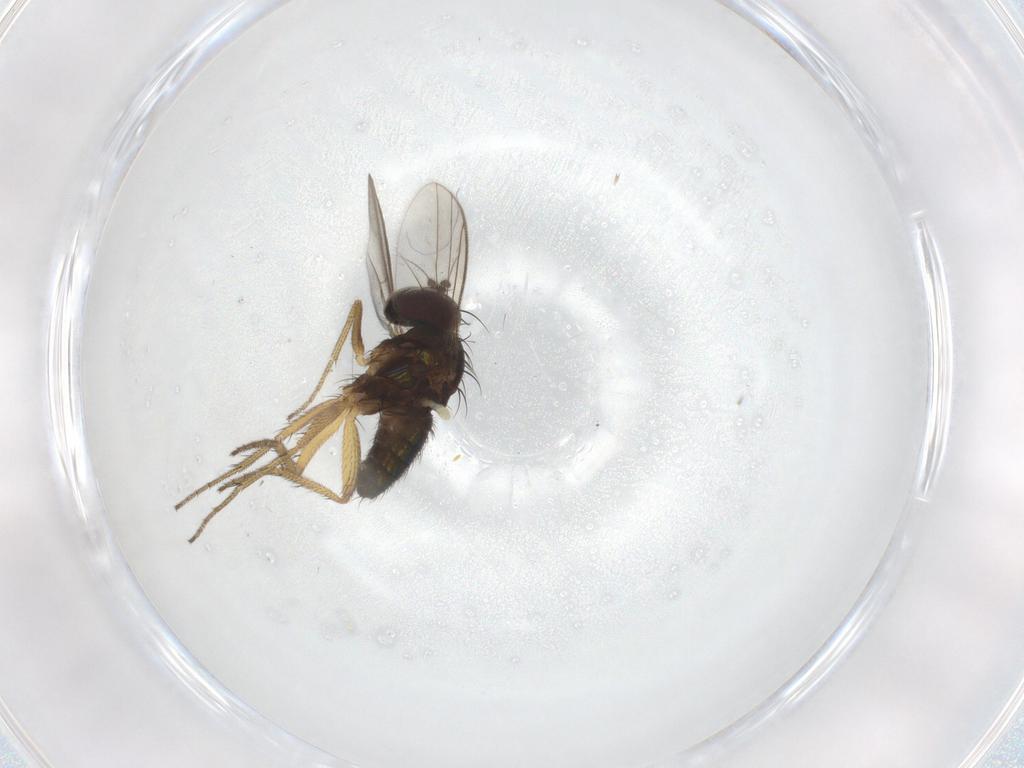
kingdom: Animalia
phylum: Arthropoda
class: Insecta
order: Diptera
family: Dolichopodidae
